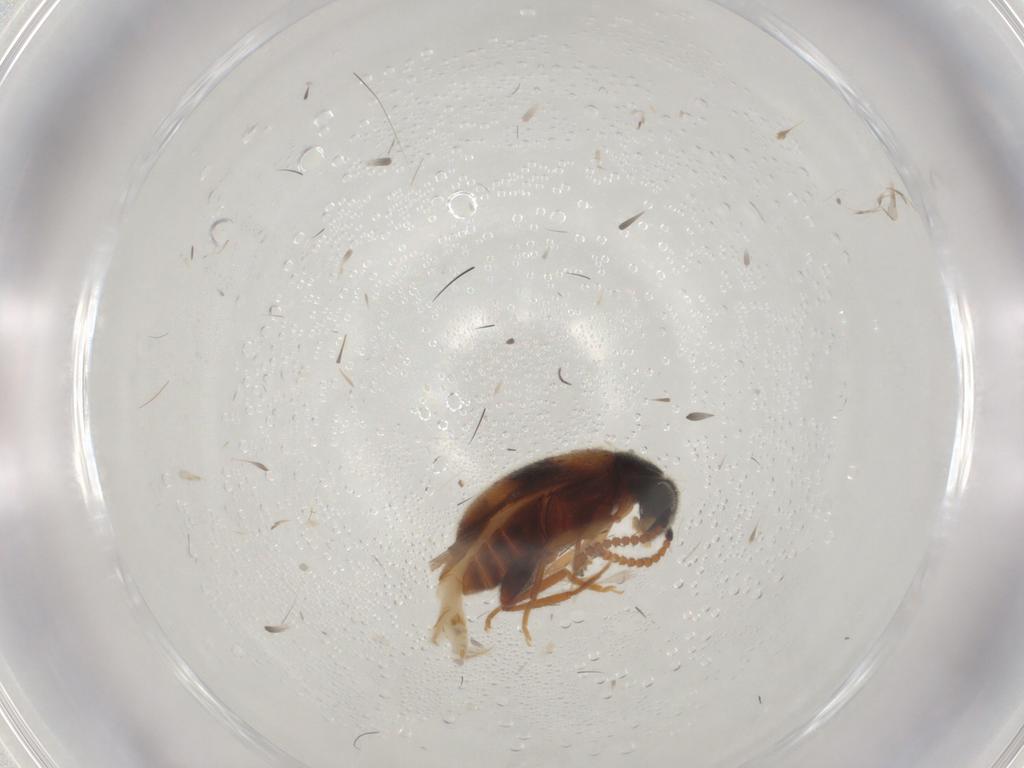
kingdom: Animalia
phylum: Arthropoda
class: Insecta
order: Coleoptera
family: Aderidae
